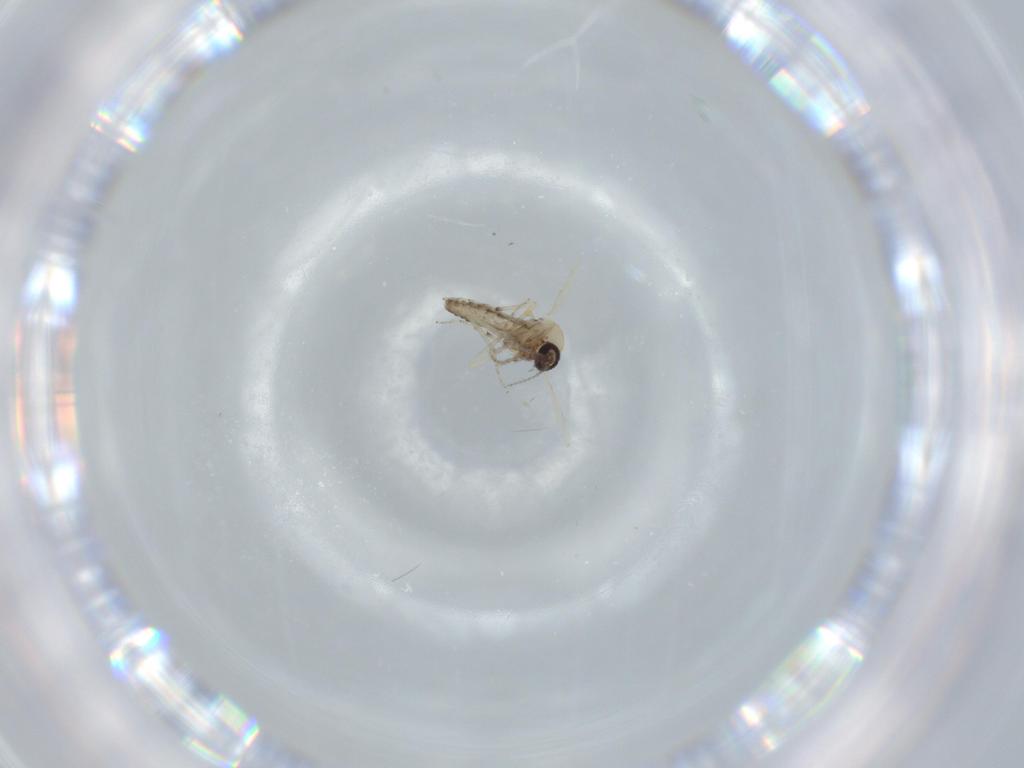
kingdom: Animalia
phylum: Arthropoda
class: Insecta
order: Diptera
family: Ceratopogonidae
